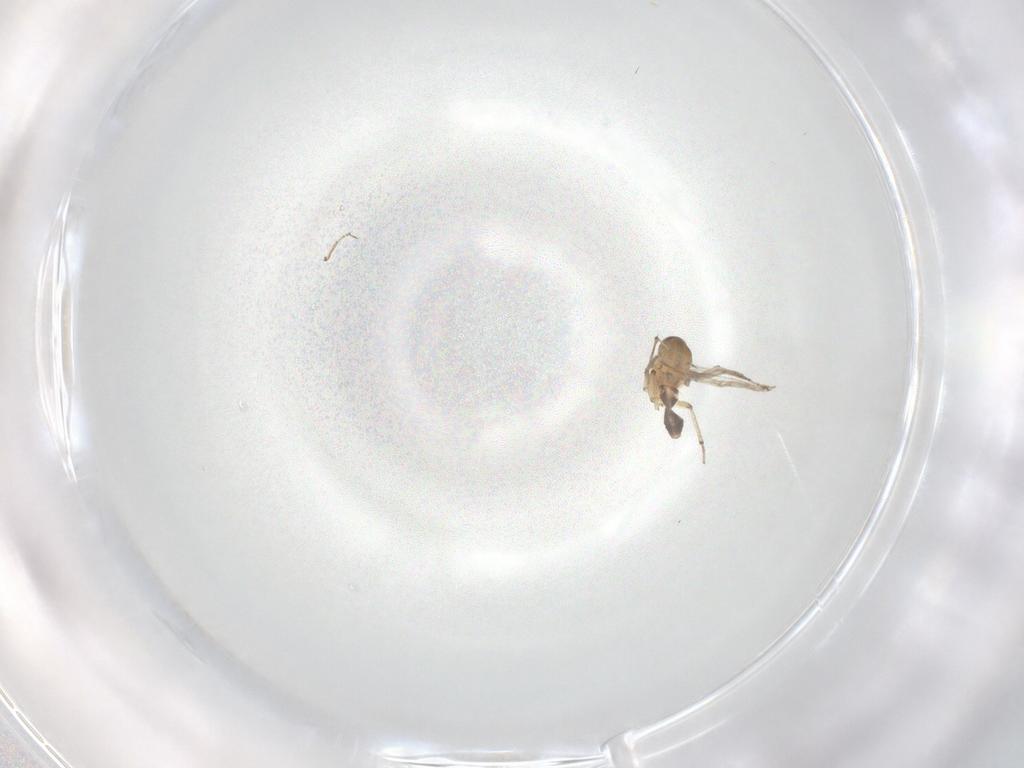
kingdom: Animalia
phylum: Arthropoda
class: Insecta
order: Diptera
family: Ceratopogonidae
